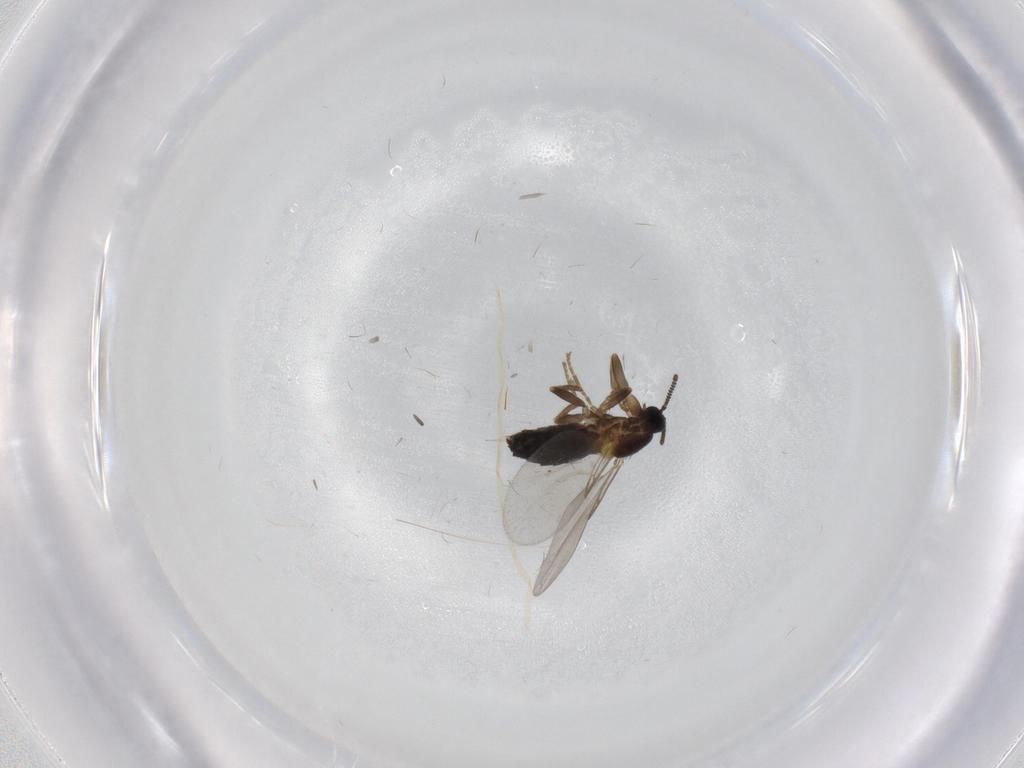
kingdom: Animalia
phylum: Arthropoda
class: Insecta
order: Diptera
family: Scatopsidae
